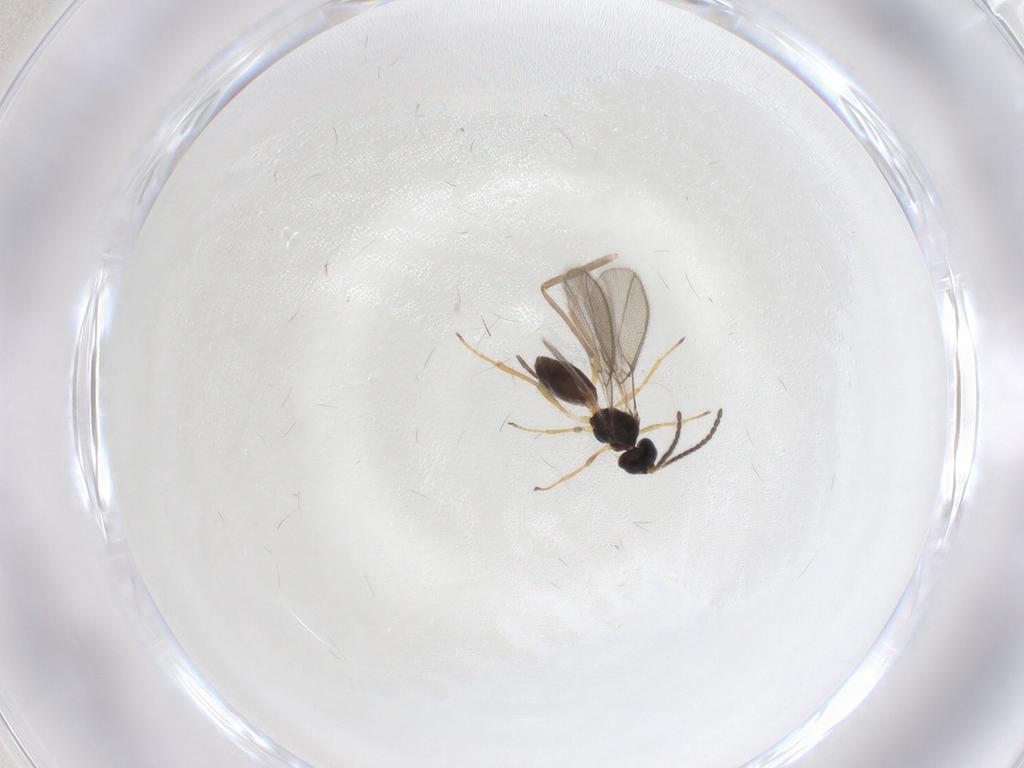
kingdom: Animalia
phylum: Arthropoda
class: Insecta
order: Hymenoptera
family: Braconidae
